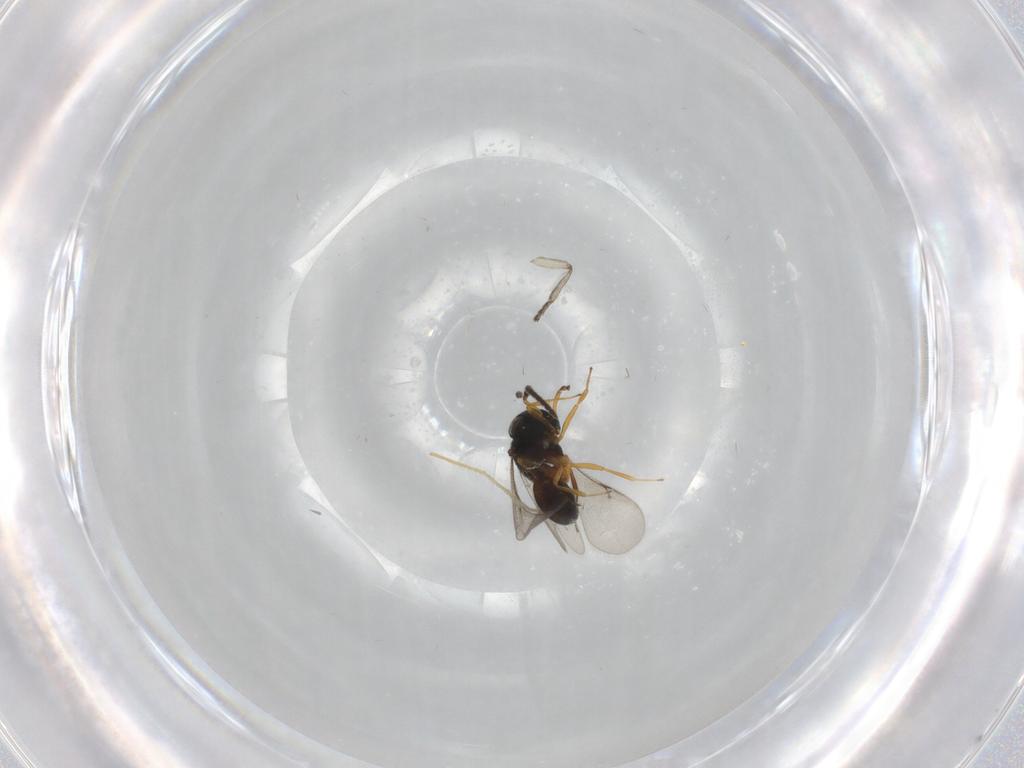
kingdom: Animalia
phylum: Arthropoda
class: Insecta
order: Hymenoptera
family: Scelionidae
